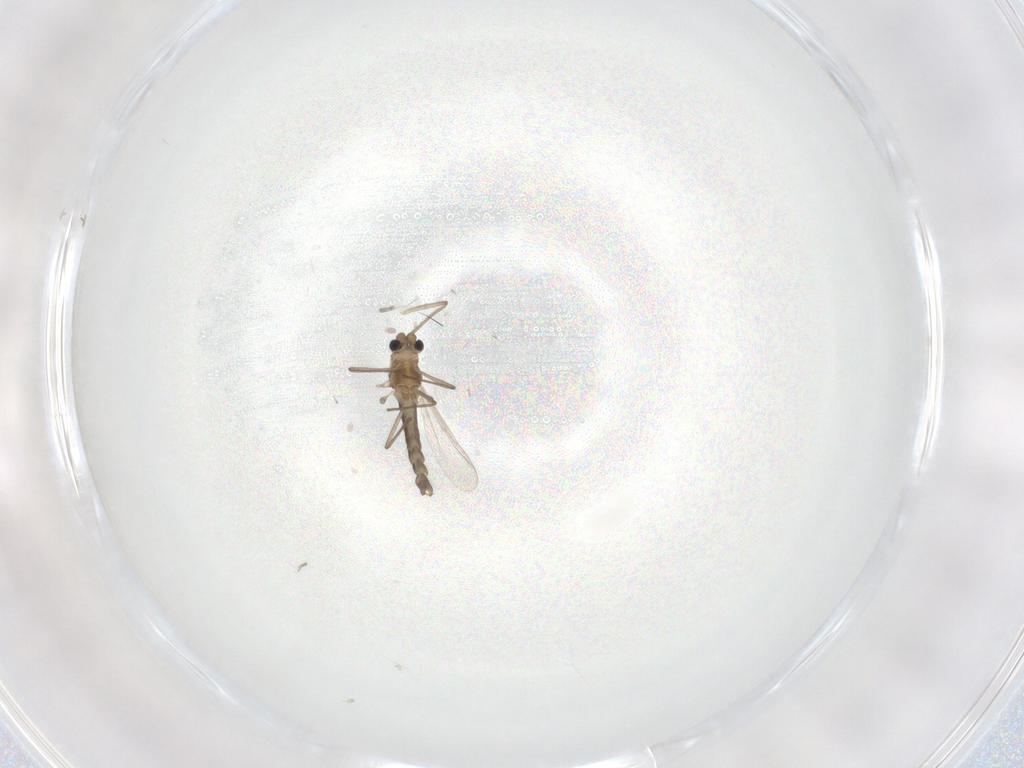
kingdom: Animalia
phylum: Arthropoda
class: Insecta
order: Diptera
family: Chironomidae
